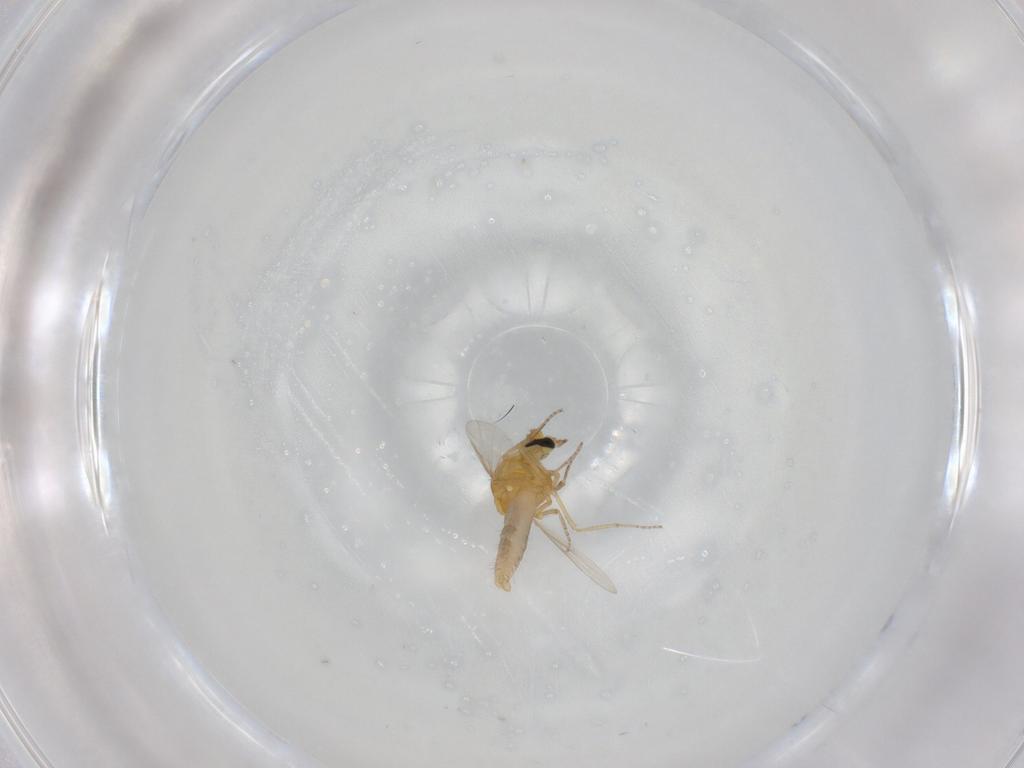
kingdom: Animalia
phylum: Arthropoda
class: Insecta
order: Diptera
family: Ceratopogonidae
